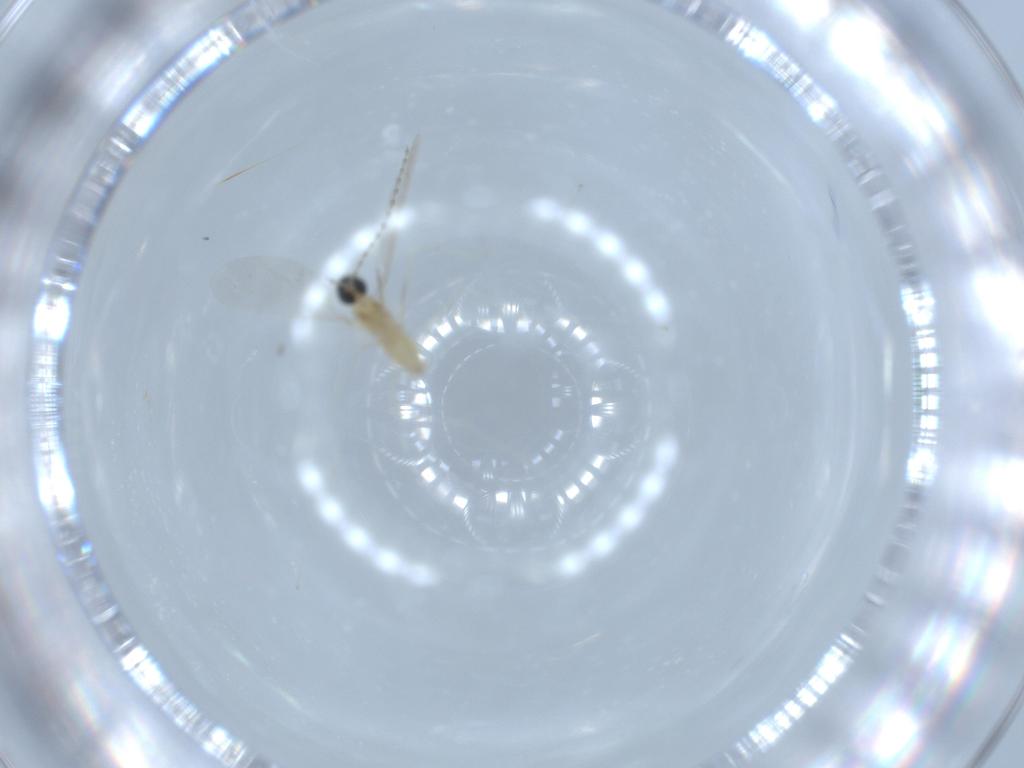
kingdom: Animalia
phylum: Arthropoda
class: Insecta
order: Diptera
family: Cecidomyiidae
